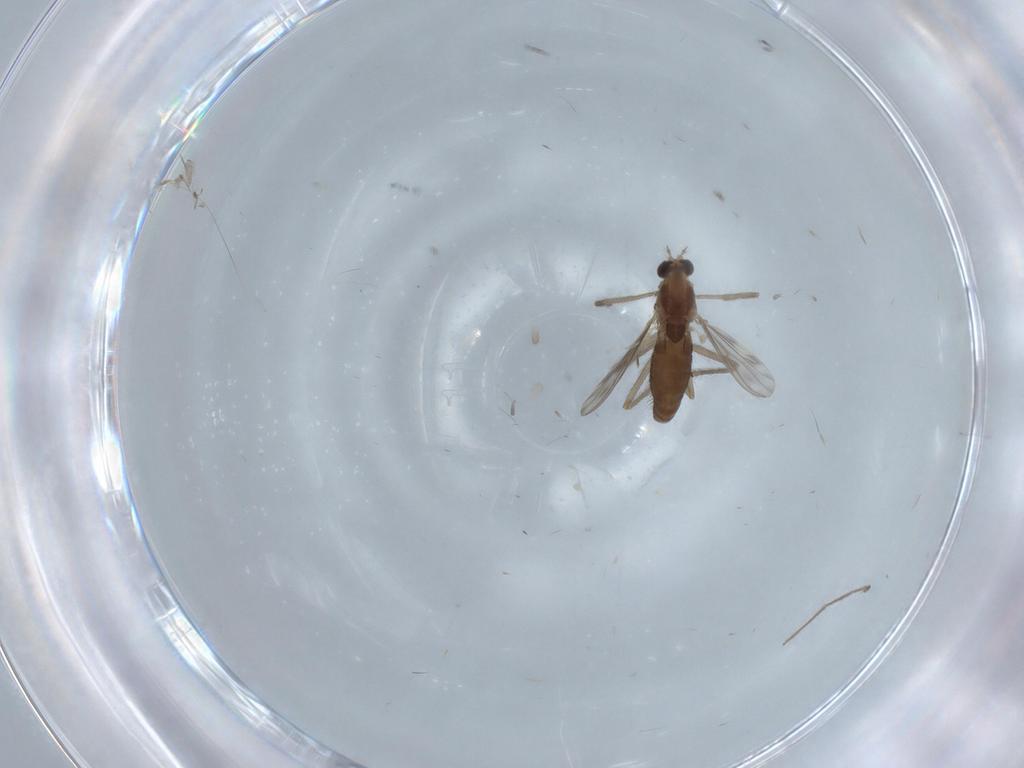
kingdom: Animalia
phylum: Arthropoda
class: Insecta
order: Diptera
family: Chironomidae
